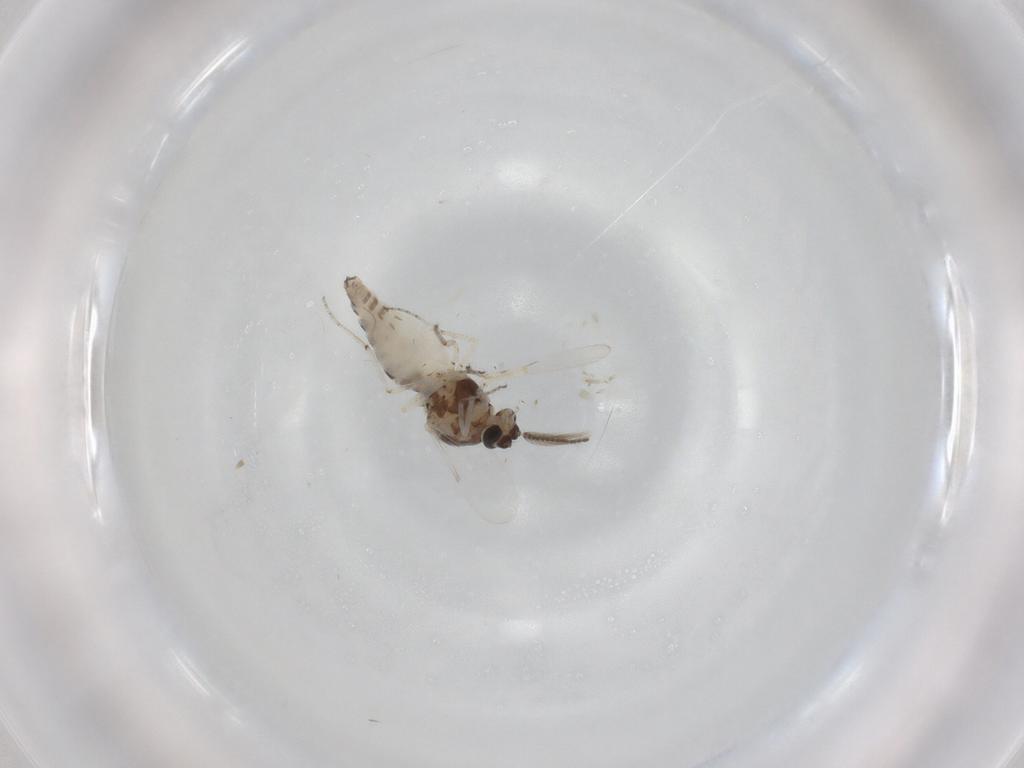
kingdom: Animalia
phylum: Arthropoda
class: Insecta
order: Diptera
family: Ceratopogonidae
